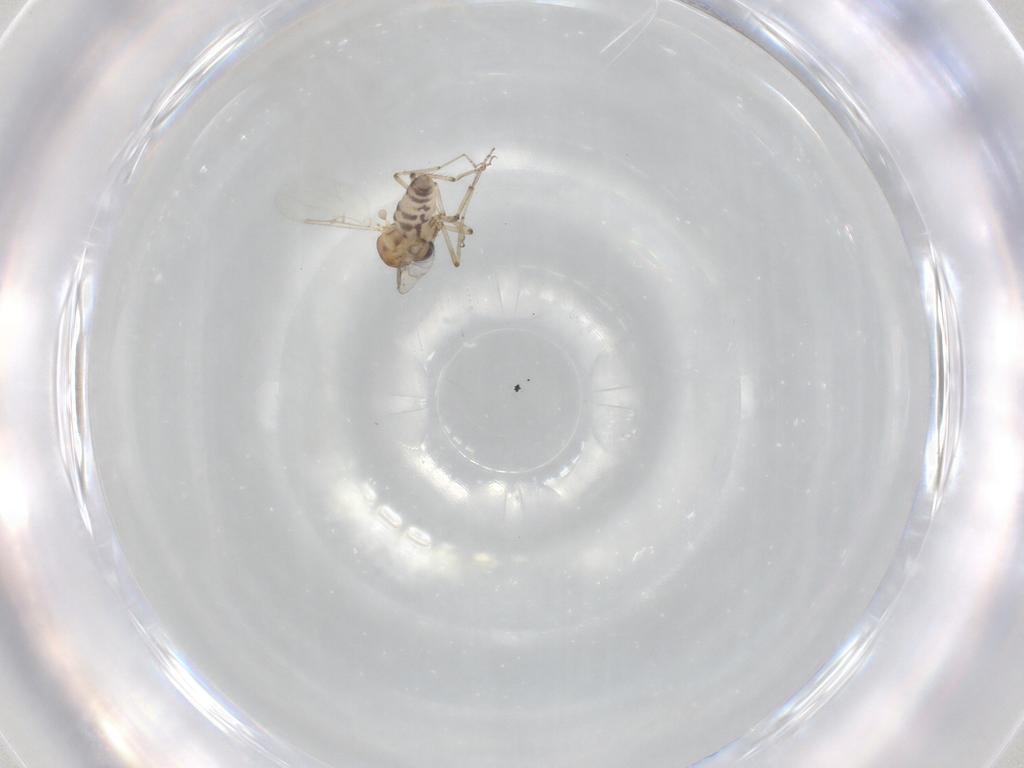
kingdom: Animalia
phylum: Arthropoda
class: Insecta
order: Diptera
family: Ceratopogonidae
